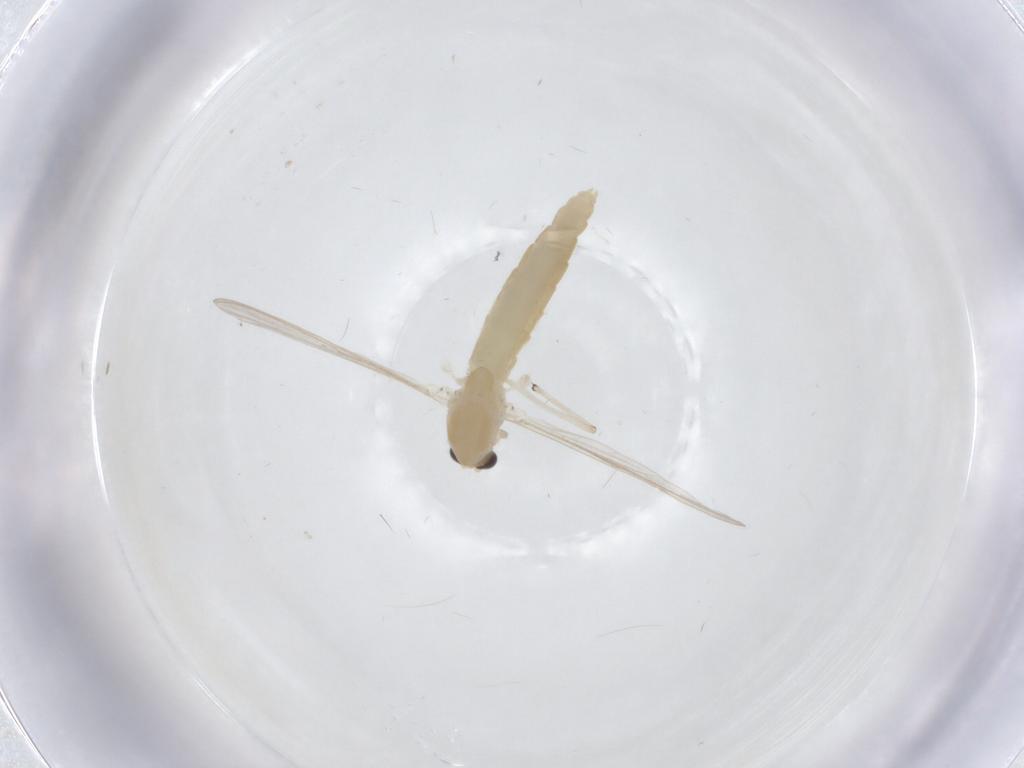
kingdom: Animalia
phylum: Arthropoda
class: Insecta
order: Diptera
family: Chironomidae
